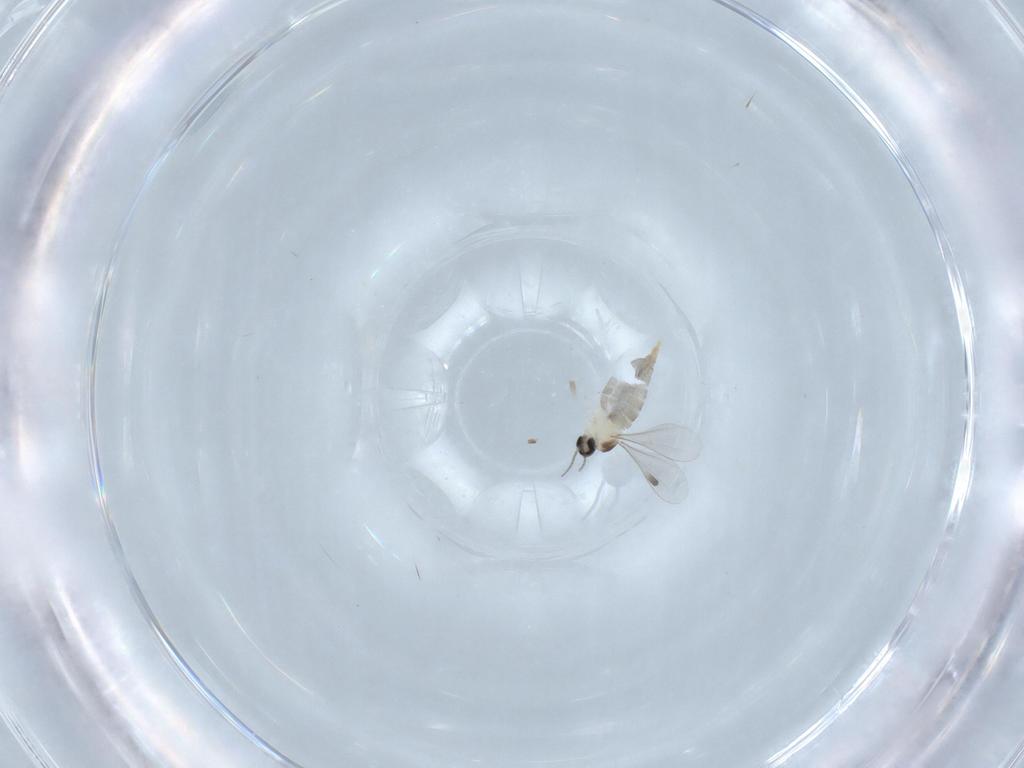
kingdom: Animalia
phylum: Arthropoda
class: Insecta
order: Diptera
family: Cecidomyiidae
